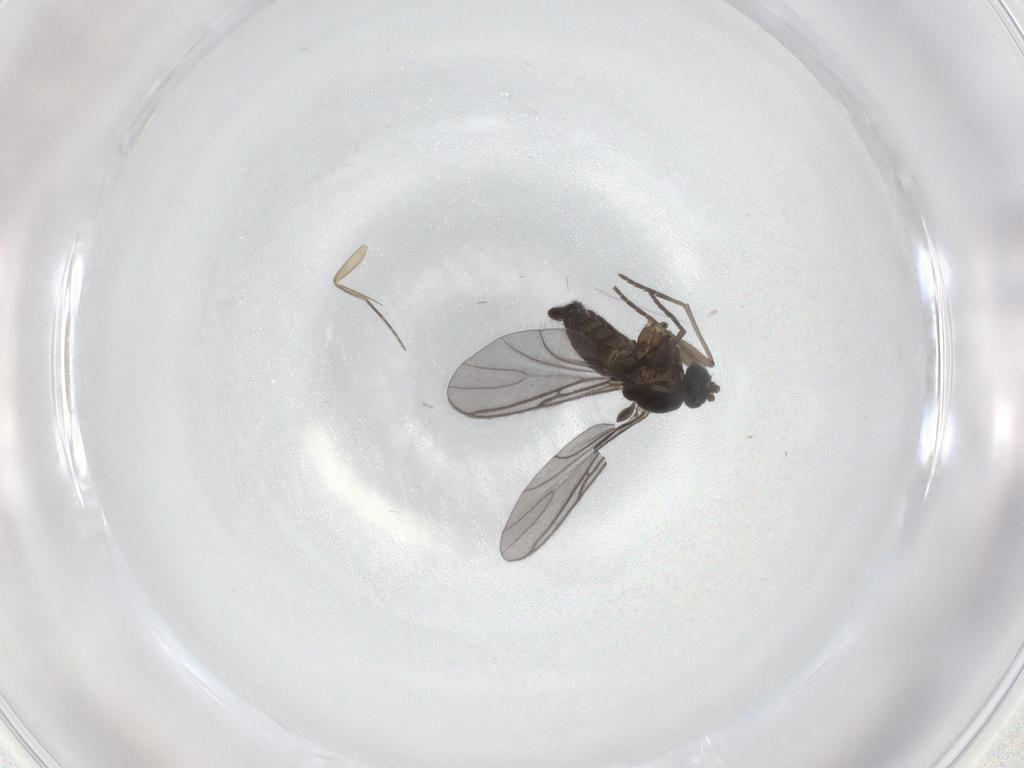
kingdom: Animalia
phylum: Arthropoda
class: Insecta
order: Diptera
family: Sciaridae
